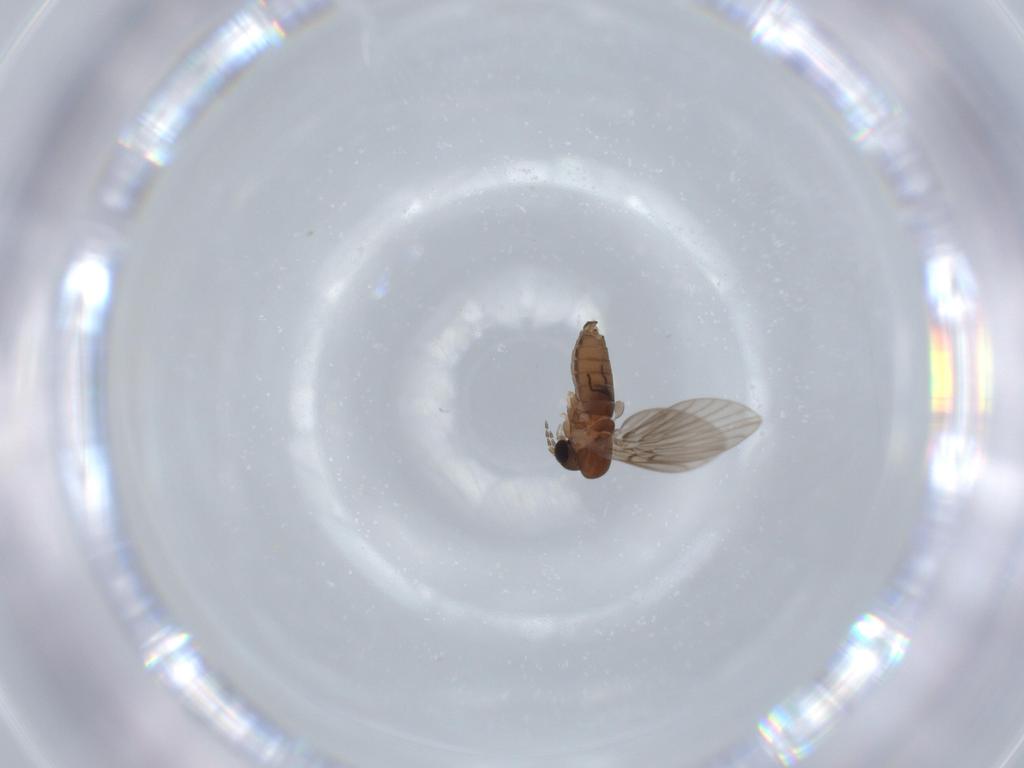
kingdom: Animalia
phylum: Arthropoda
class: Insecta
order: Diptera
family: Psychodidae
